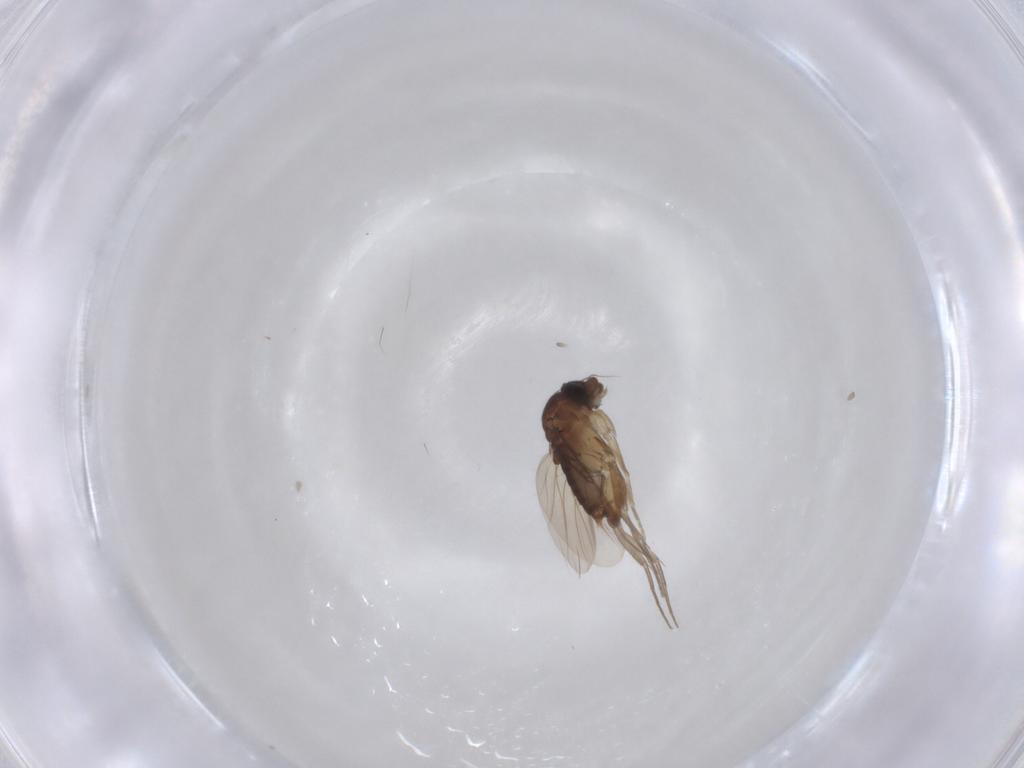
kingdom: Animalia
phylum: Arthropoda
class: Insecta
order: Diptera
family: Phoridae
